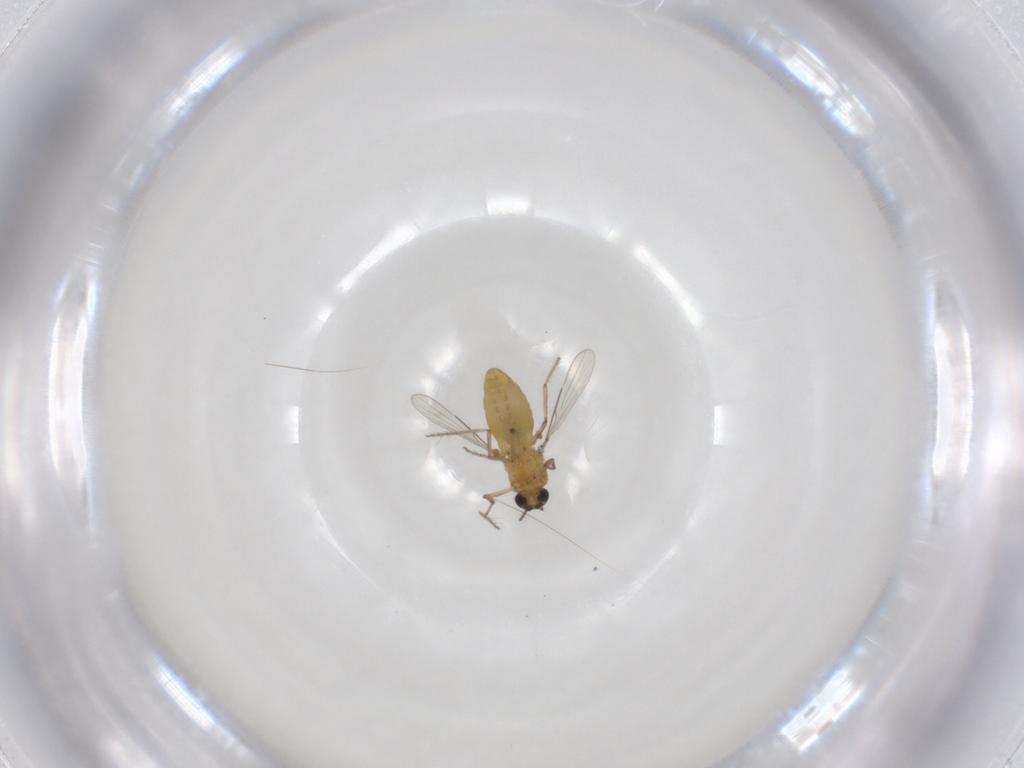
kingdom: Animalia
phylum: Arthropoda
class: Insecta
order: Diptera
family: Ceratopogonidae
